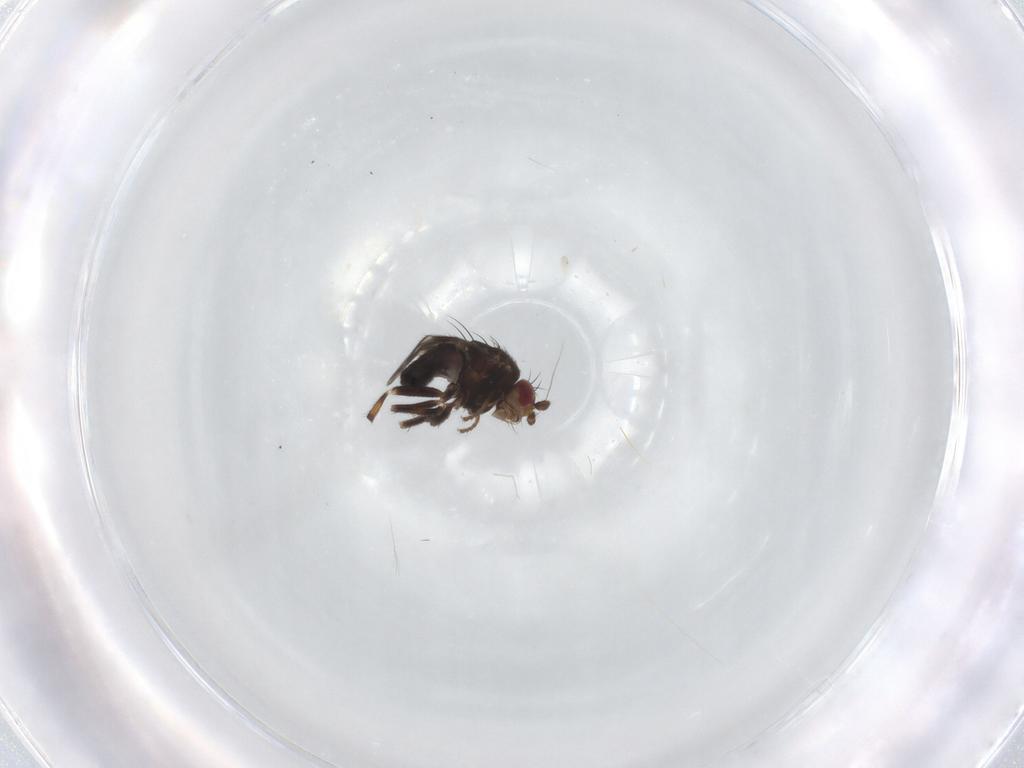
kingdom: Animalia
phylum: Arthropoda
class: Insecta
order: Diptera
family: Sphaeroceridae
